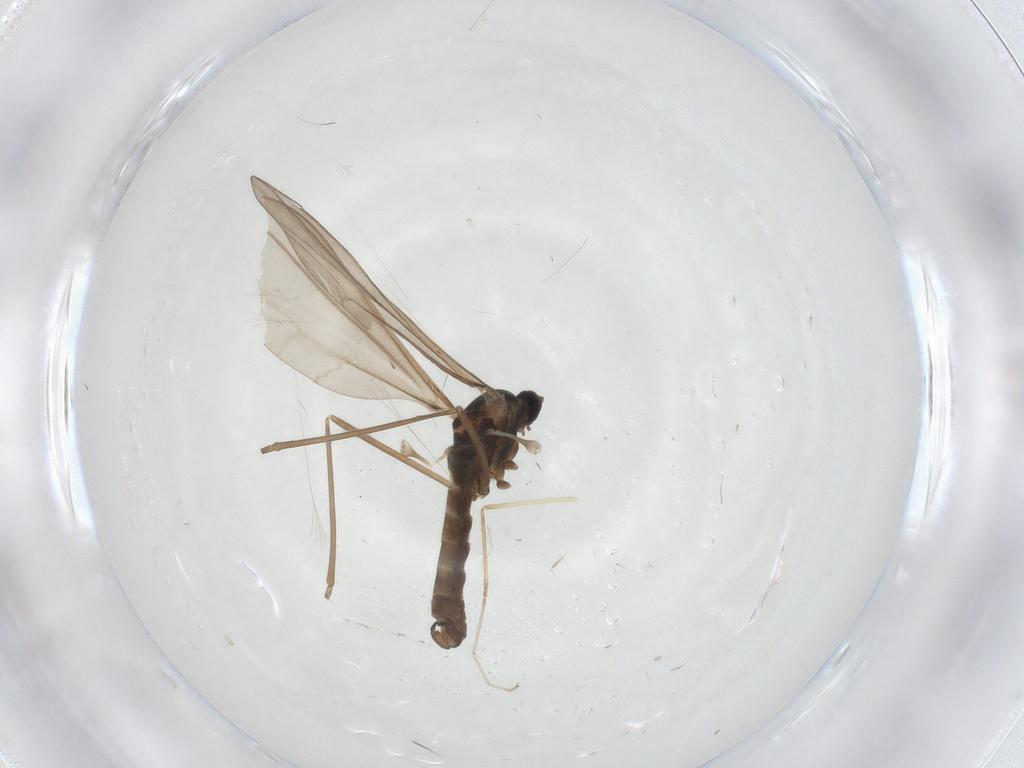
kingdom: Animalia
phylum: Arthropoda
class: Insecta
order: Diptera
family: Cecidomyiidae
